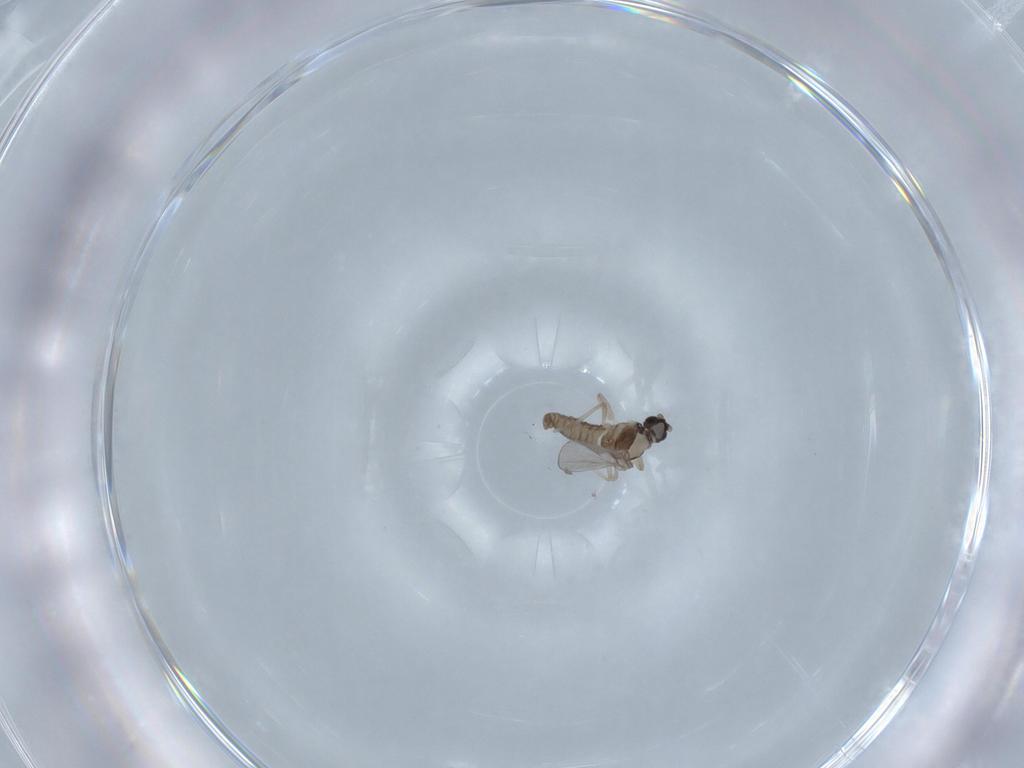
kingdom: Animalia
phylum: Arthropoda
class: Insecta
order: Diptera
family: Cecidomyiidae
